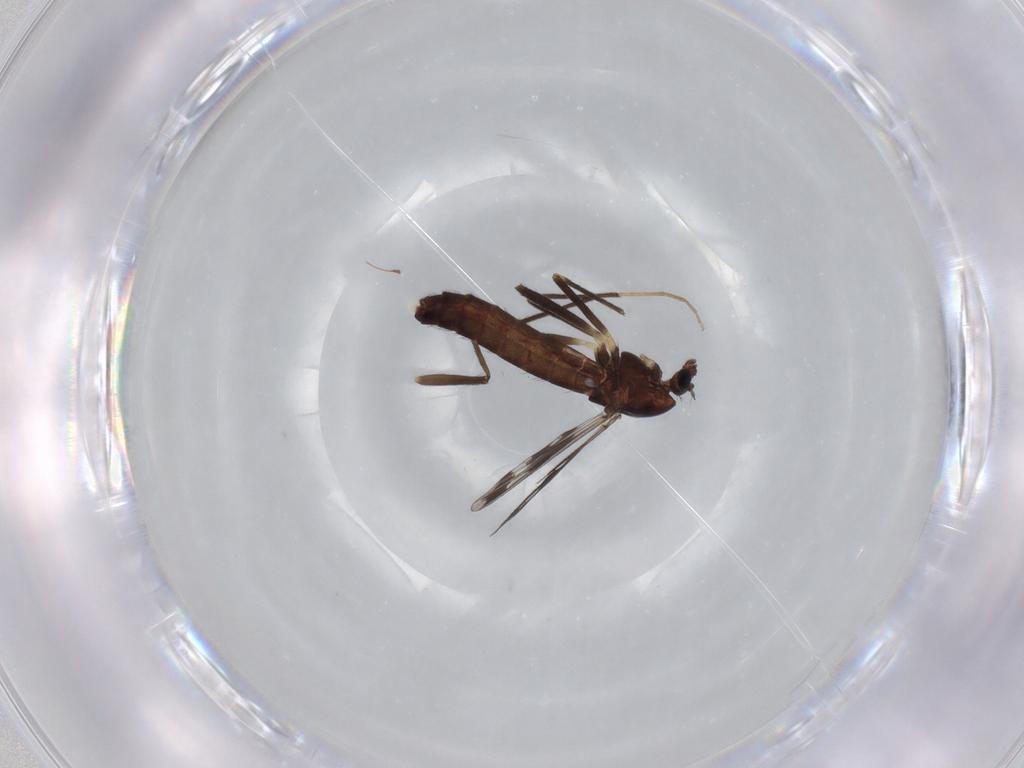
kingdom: Animalia
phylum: Arthropoda
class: Insecta
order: Diptera
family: Chironomidae
